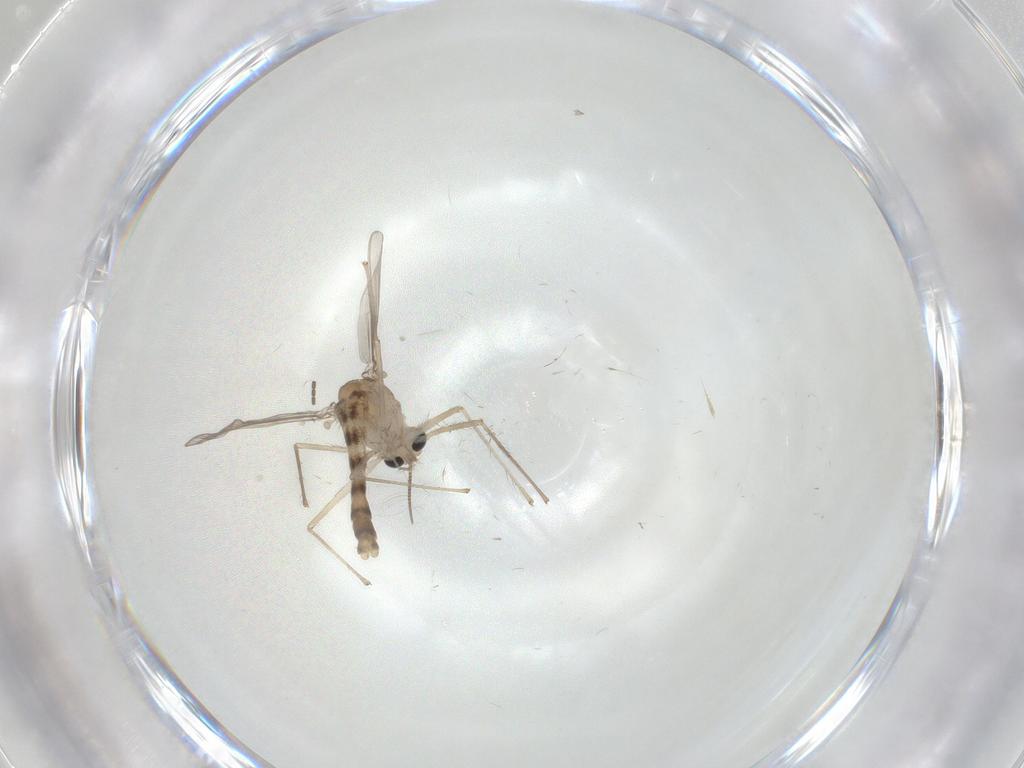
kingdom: Animalia
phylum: Arthropoda
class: Insecta
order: Diptera
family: Chironomidae
